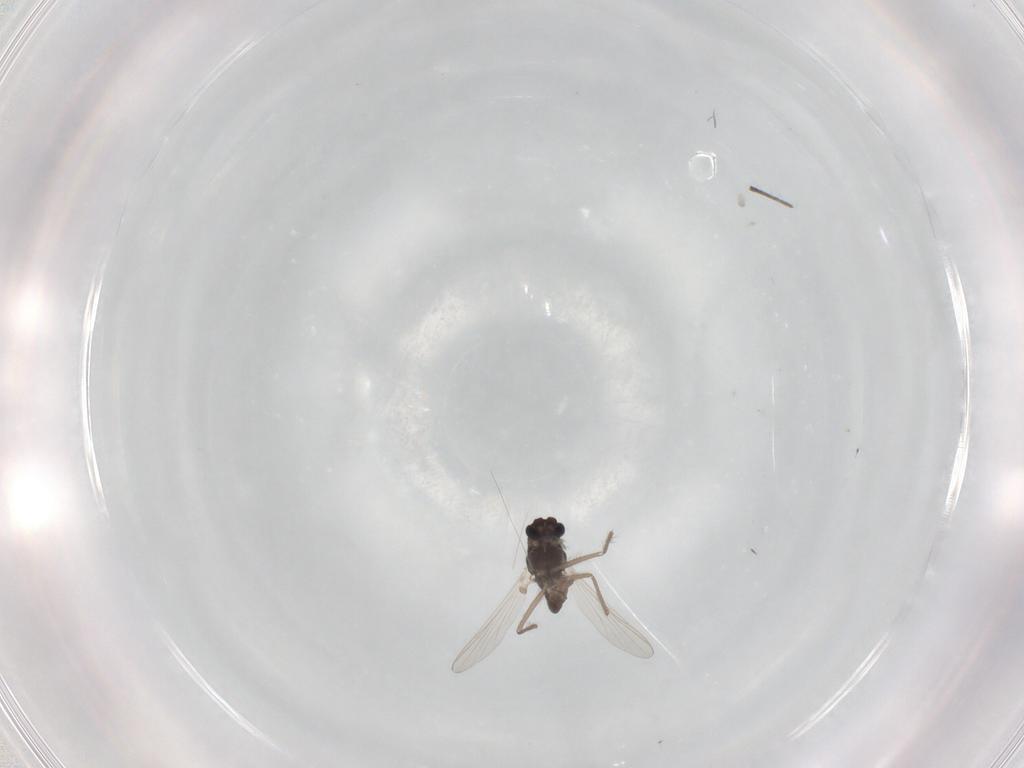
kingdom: Animalia
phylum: Arthropoda
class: Insecta
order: Diptera
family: Chironomidae
